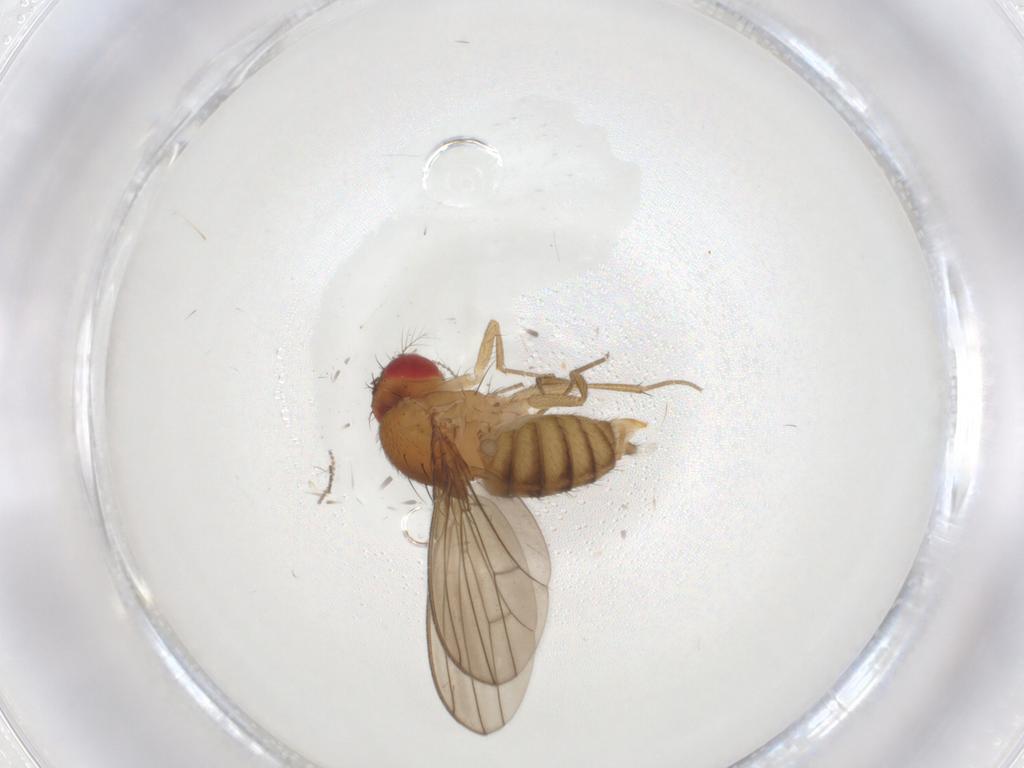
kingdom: Animalia
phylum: Arthropoda
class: Insecta
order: Diptera
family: Drosophilidae
